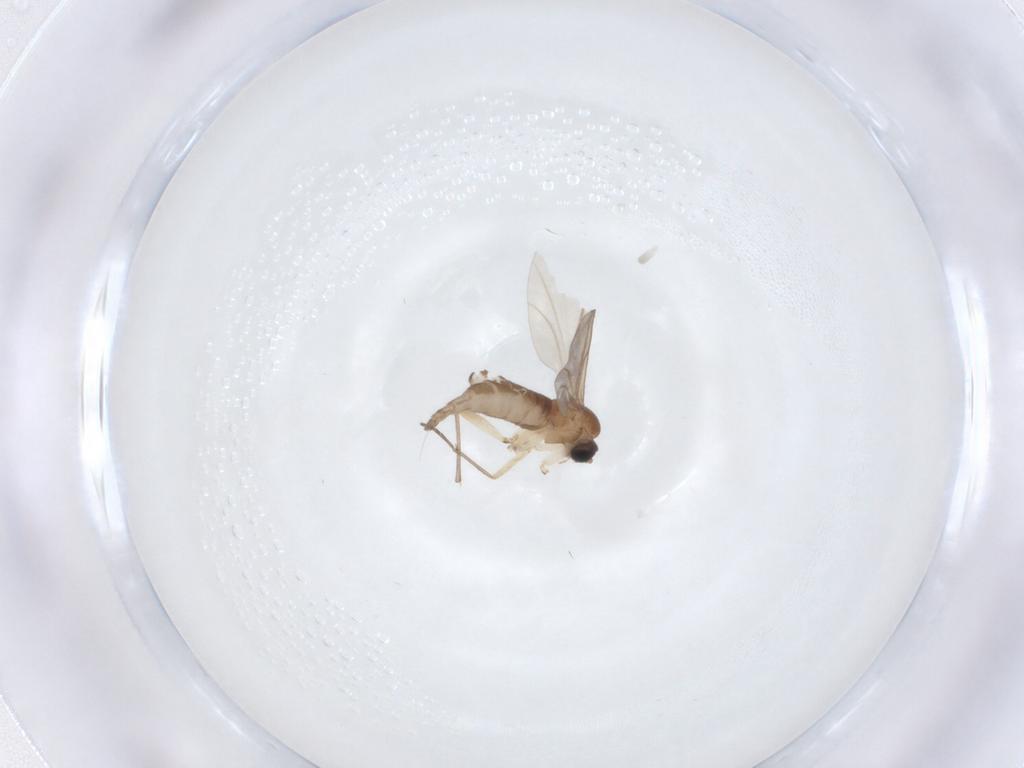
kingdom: Animalia
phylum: Arthropoda
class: Insecta
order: Diptera
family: Sciaridae
